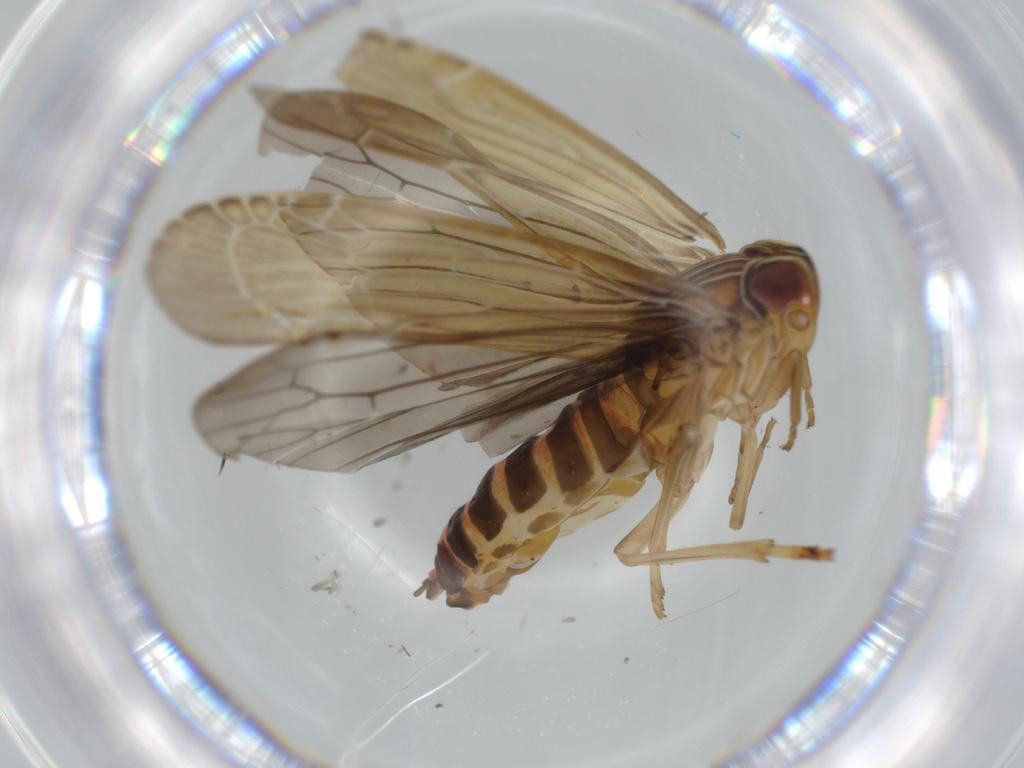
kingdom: Animalia
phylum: Arthropoda
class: Insecta
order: Hemiptera
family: Achilidae
